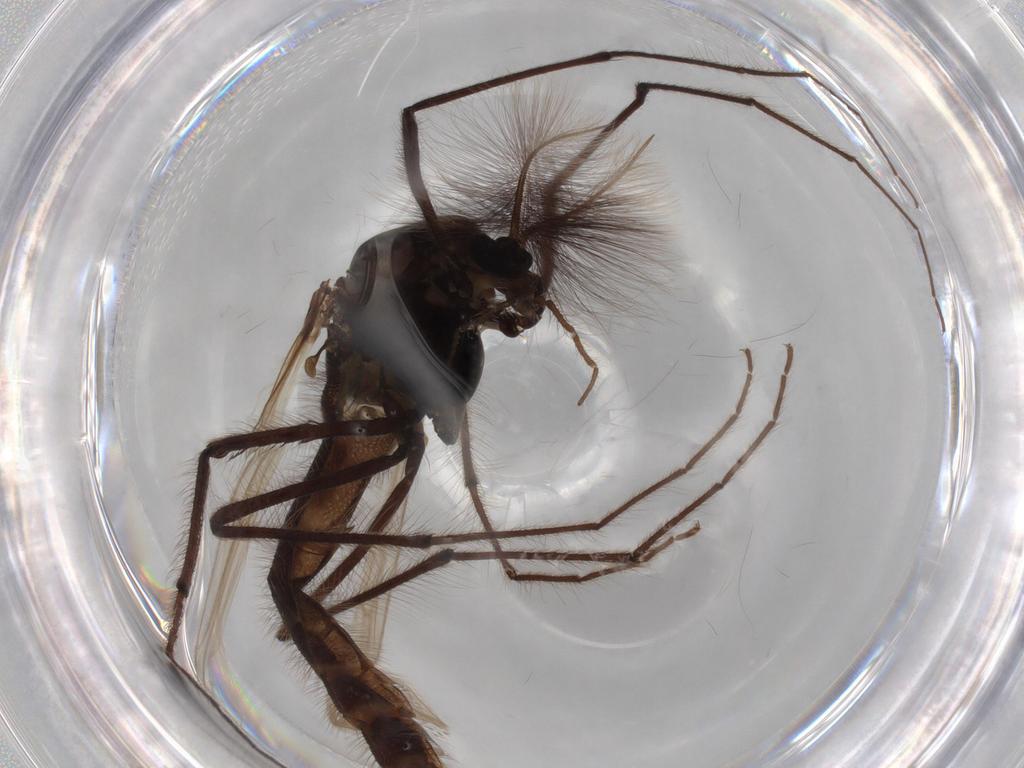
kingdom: Animalia
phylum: Arthropoda
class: Insecta
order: Diptera
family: Chironomidae
